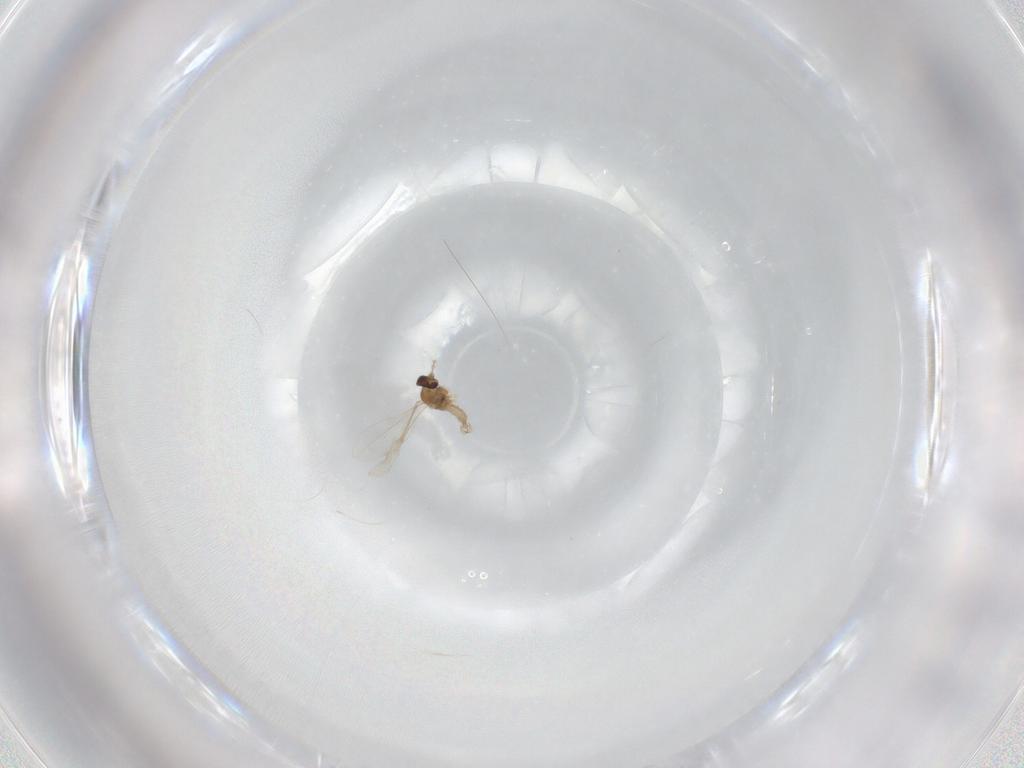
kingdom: Animalia
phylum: Arthropoda
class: Insecta
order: Diptera
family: Cecidomyiidae
